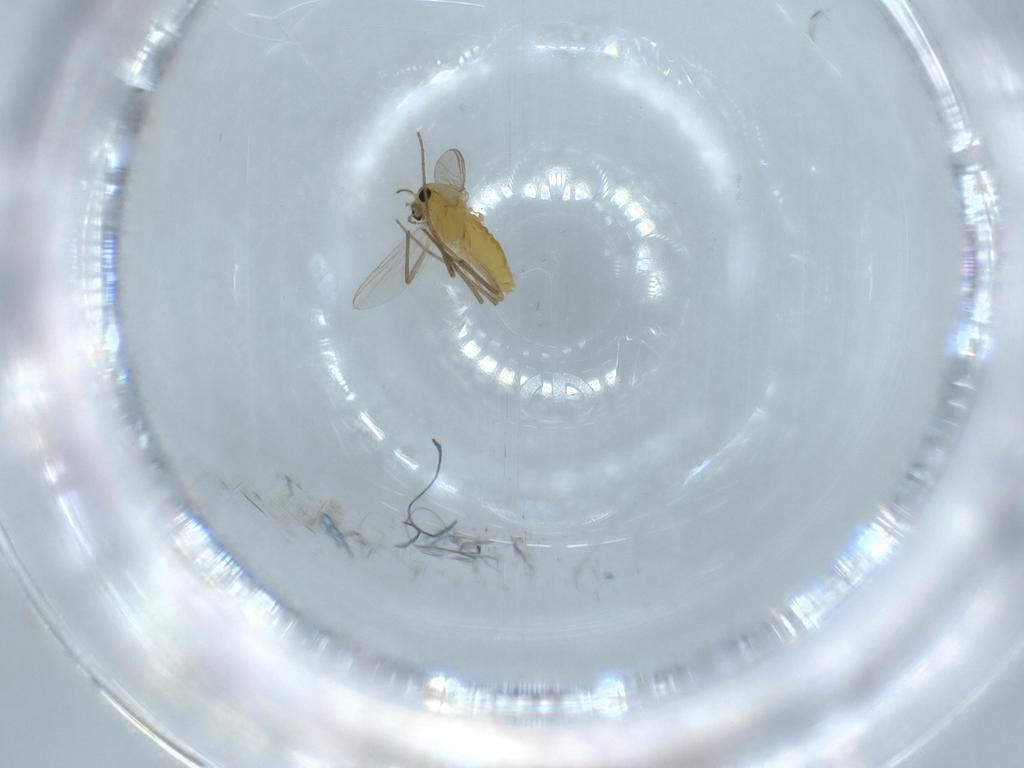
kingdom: Animalia
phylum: Arthropoda
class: Insecta
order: Diptera
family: Chironomidae
